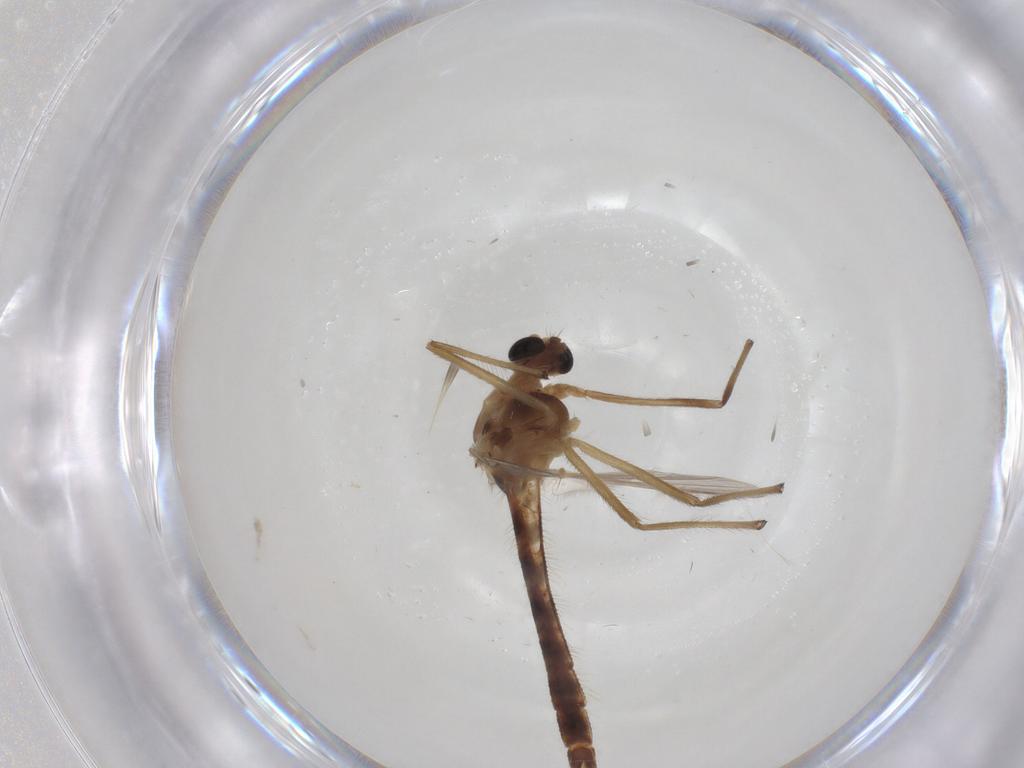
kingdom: Animalia
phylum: Arthropoda
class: Insecta
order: Diptera
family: Chironomidae
